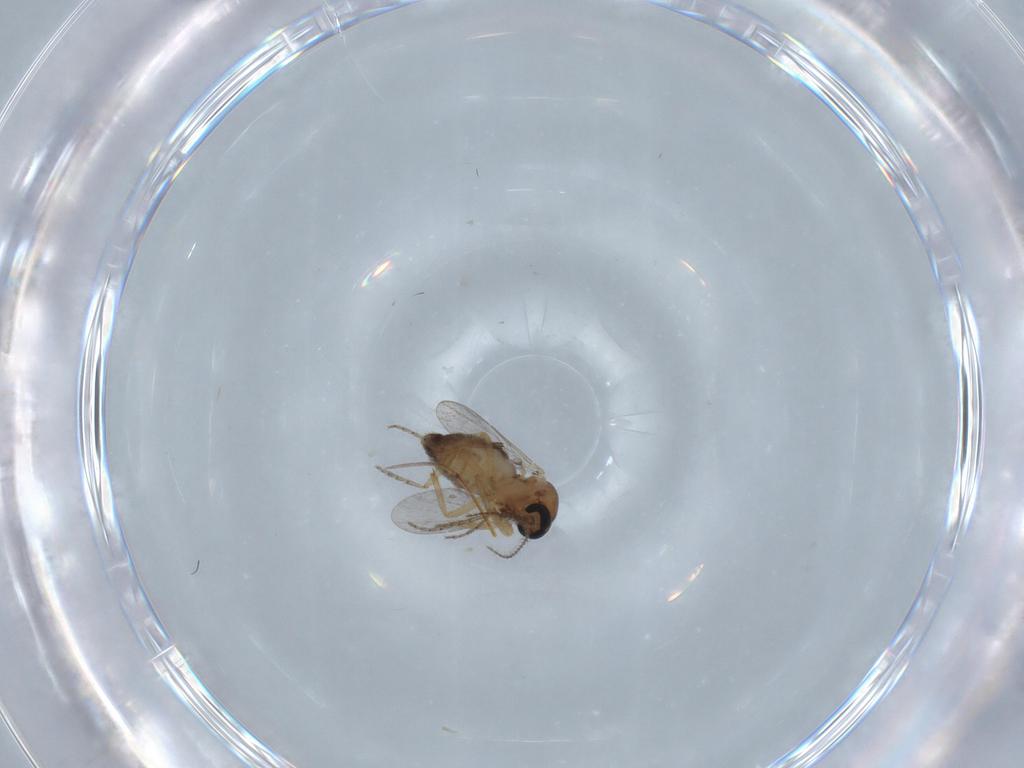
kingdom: Animalia
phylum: Arthropoda
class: Insecta
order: Diptera
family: Ceratopogonidae
